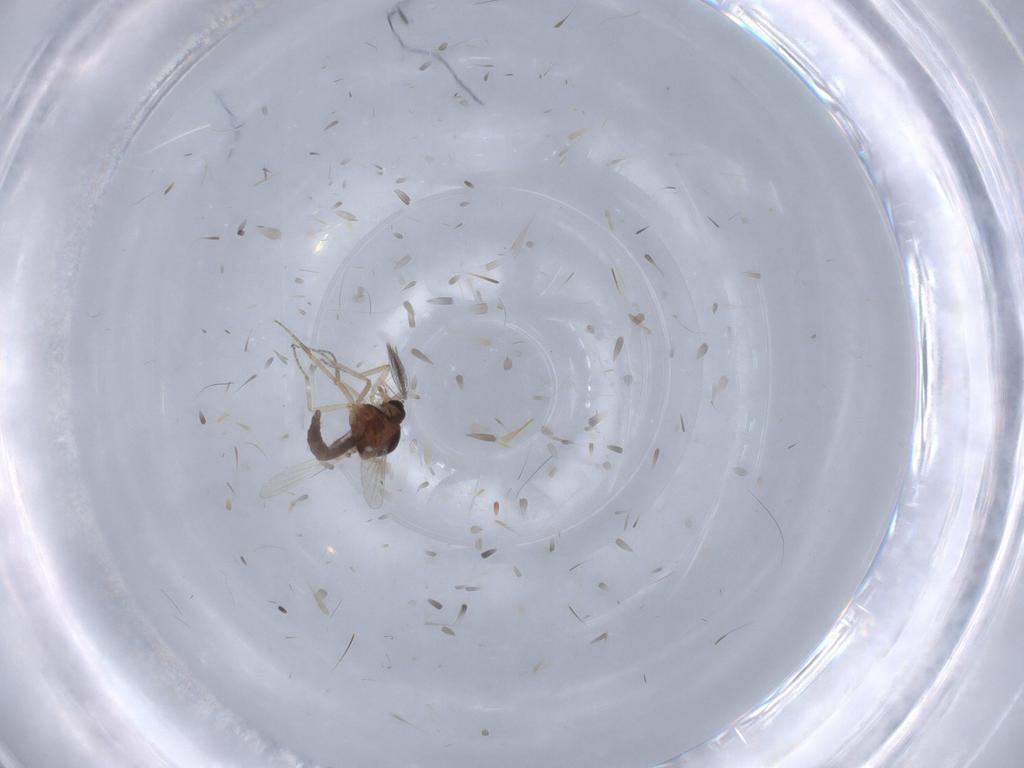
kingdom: Animalia
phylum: Arthropoda
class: Insecta
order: Diptera
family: Ceratopogonidae
